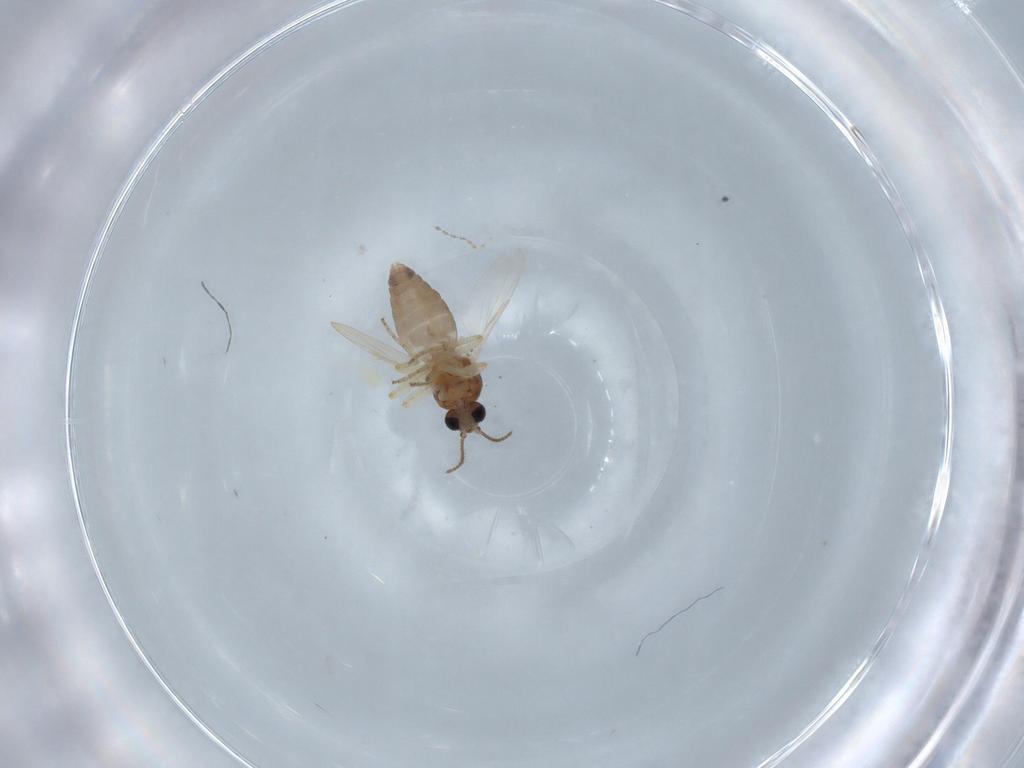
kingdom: Animalia
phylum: Arthropoda
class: Insecta
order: Diptera
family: Ceratopogonidae
